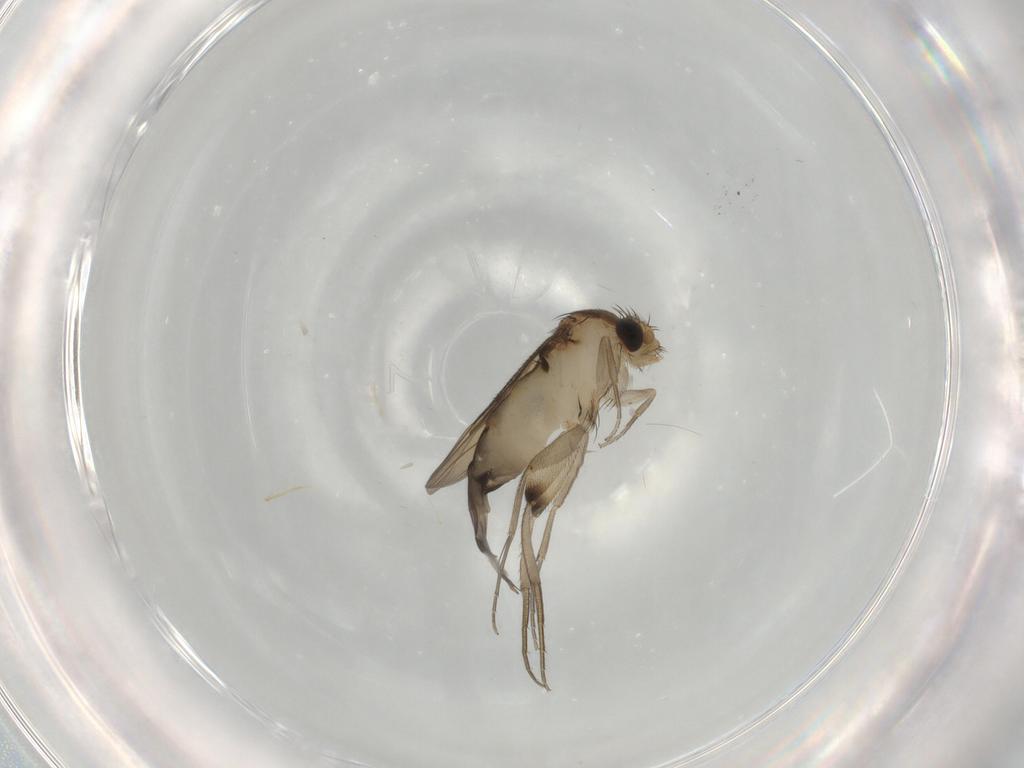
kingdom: Animalia
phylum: Arthropoda
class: Insecta
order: Diptera
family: Phoridae
